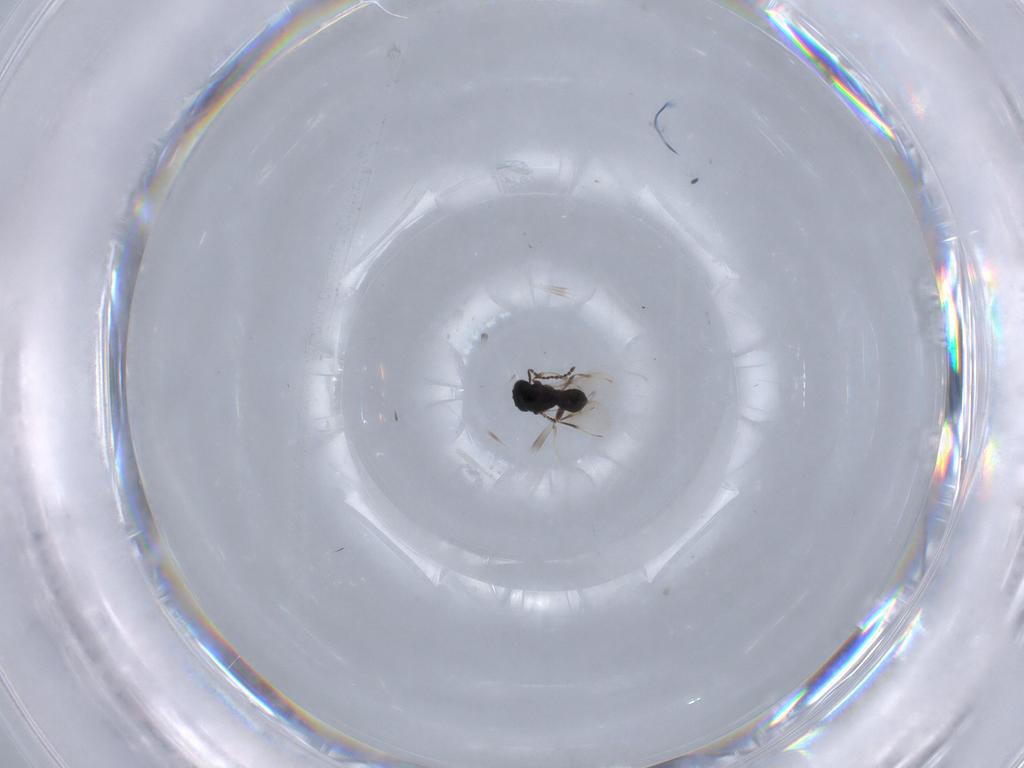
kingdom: Animalia
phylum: Arthropoda
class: Insecta
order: Hymenoptera
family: Scelionidae
